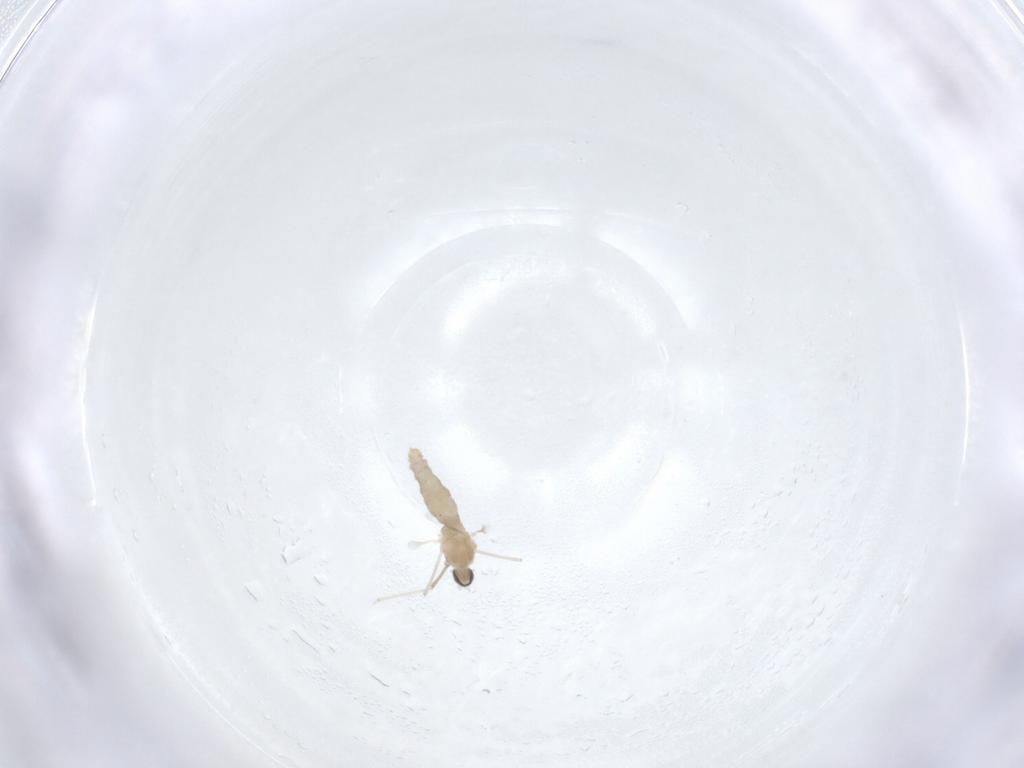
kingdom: Animalia
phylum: Arthropoda
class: Insecta
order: Diptera
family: Cecidomyiidae
